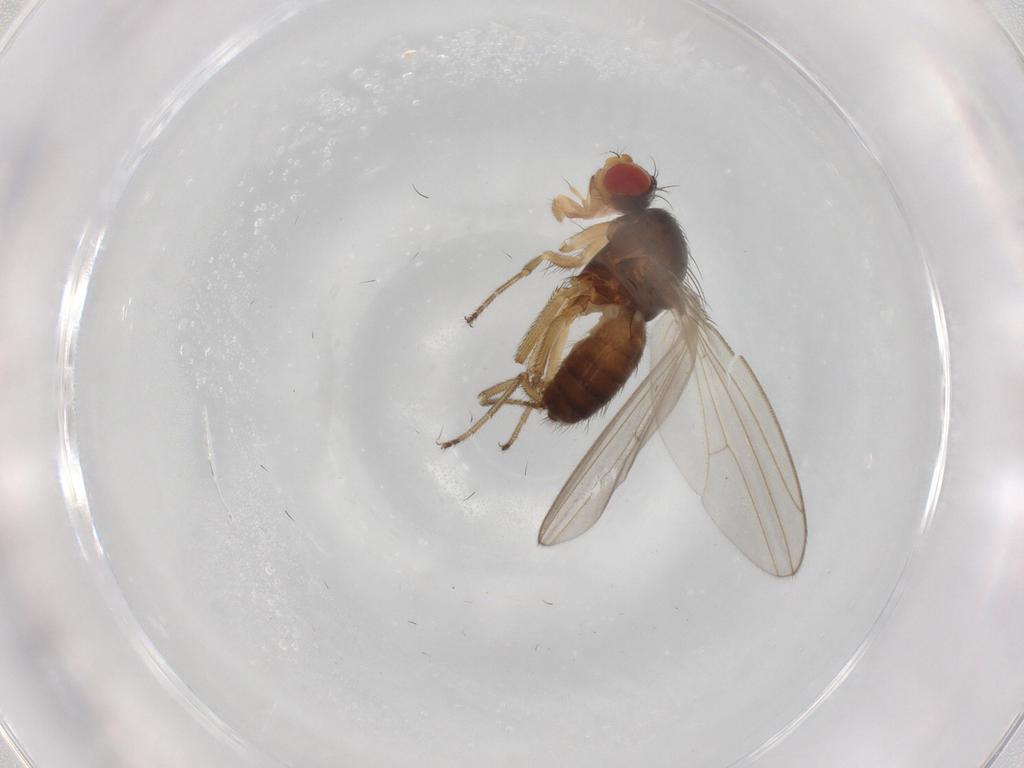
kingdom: Animalia
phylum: Arthropoda
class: Insecta
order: Diptera
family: Drosophilidae
